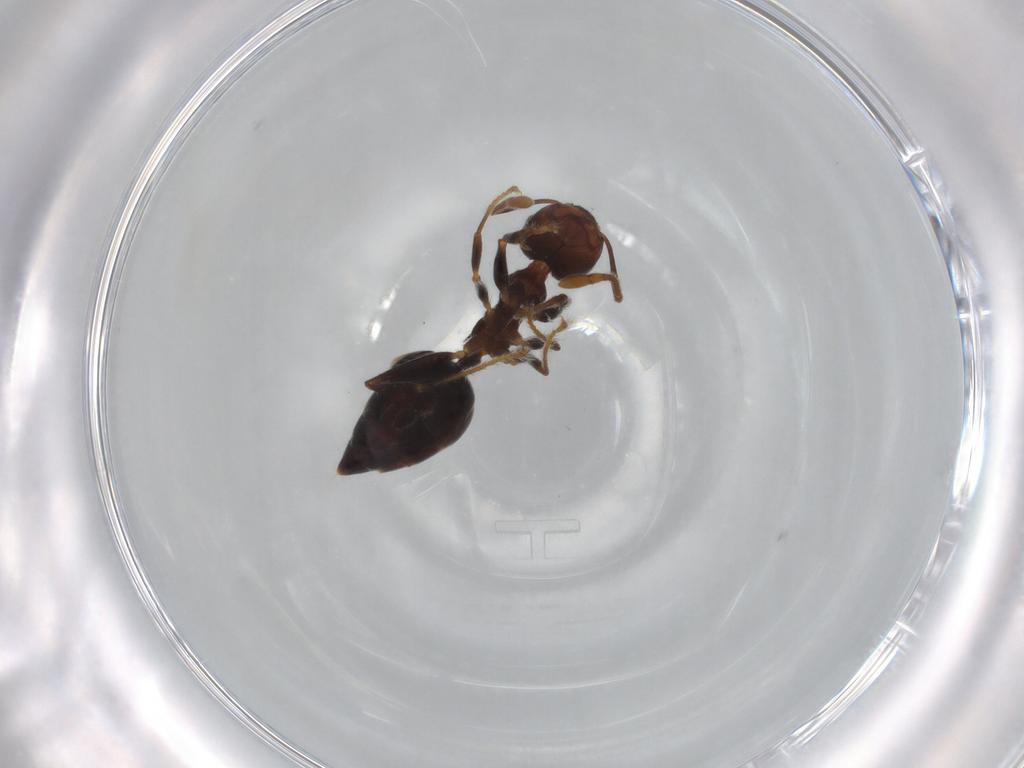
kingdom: Animalia
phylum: Arthropoda
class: Insecta
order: Hymenoptera
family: Formicidae
